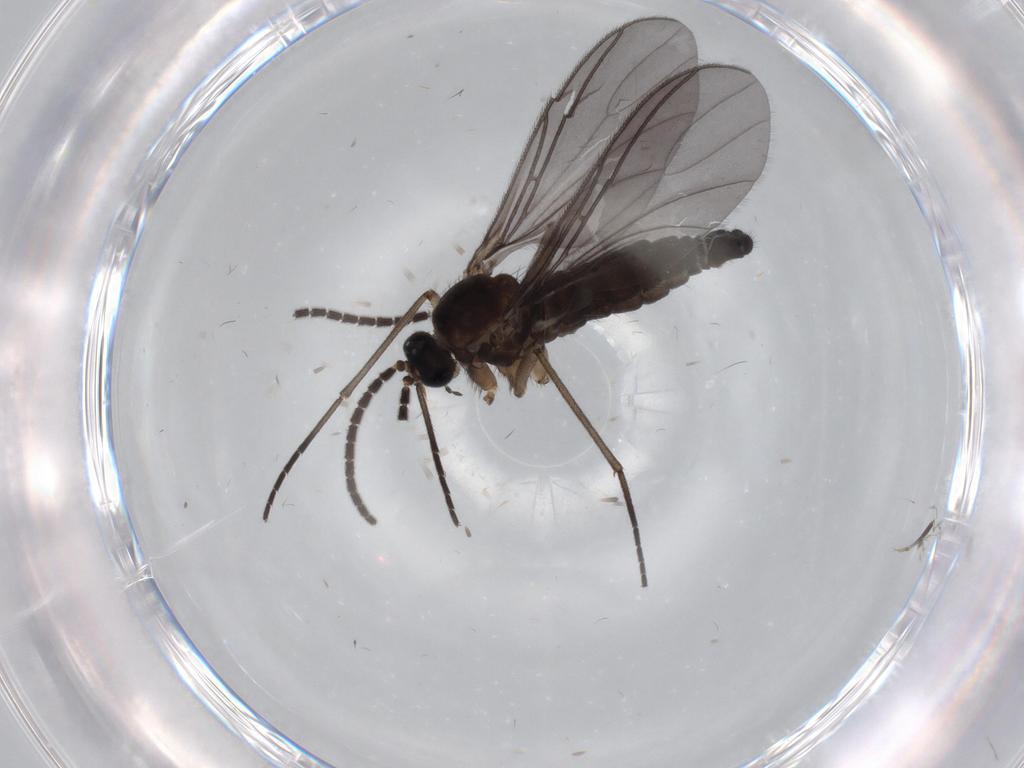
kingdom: Animalia
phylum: Arthropoda
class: Insecta
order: Diptera
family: Sciaridae
